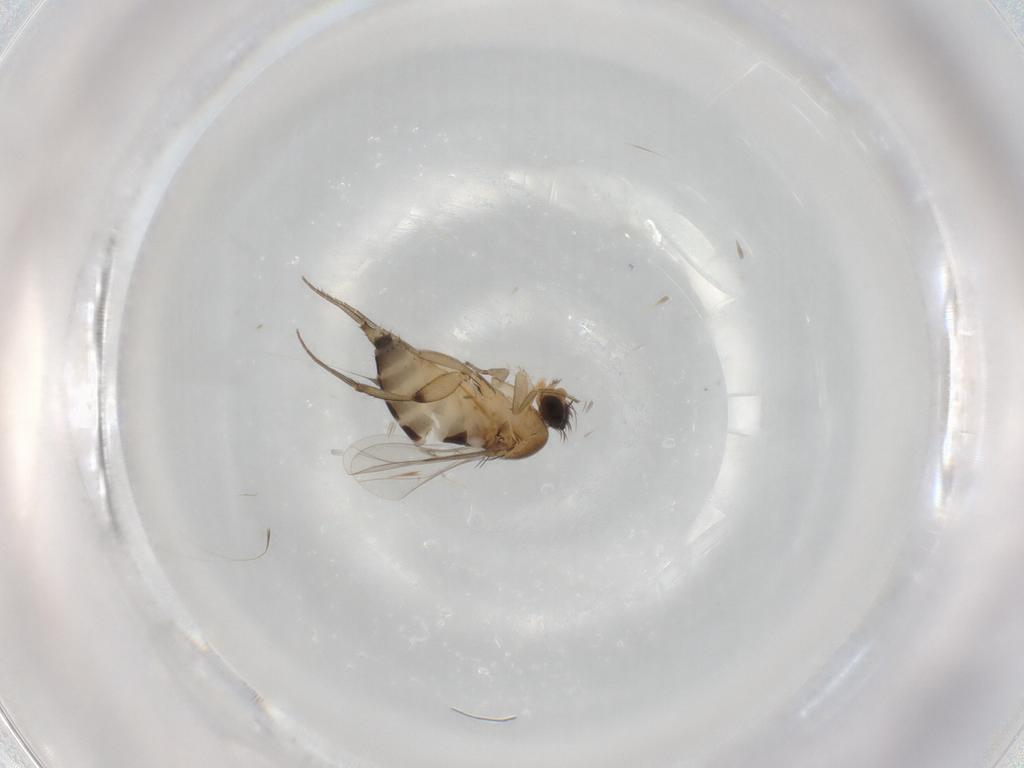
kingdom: Animalia
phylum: Arthropoda
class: Insecta
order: Diptera
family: Phoridae
